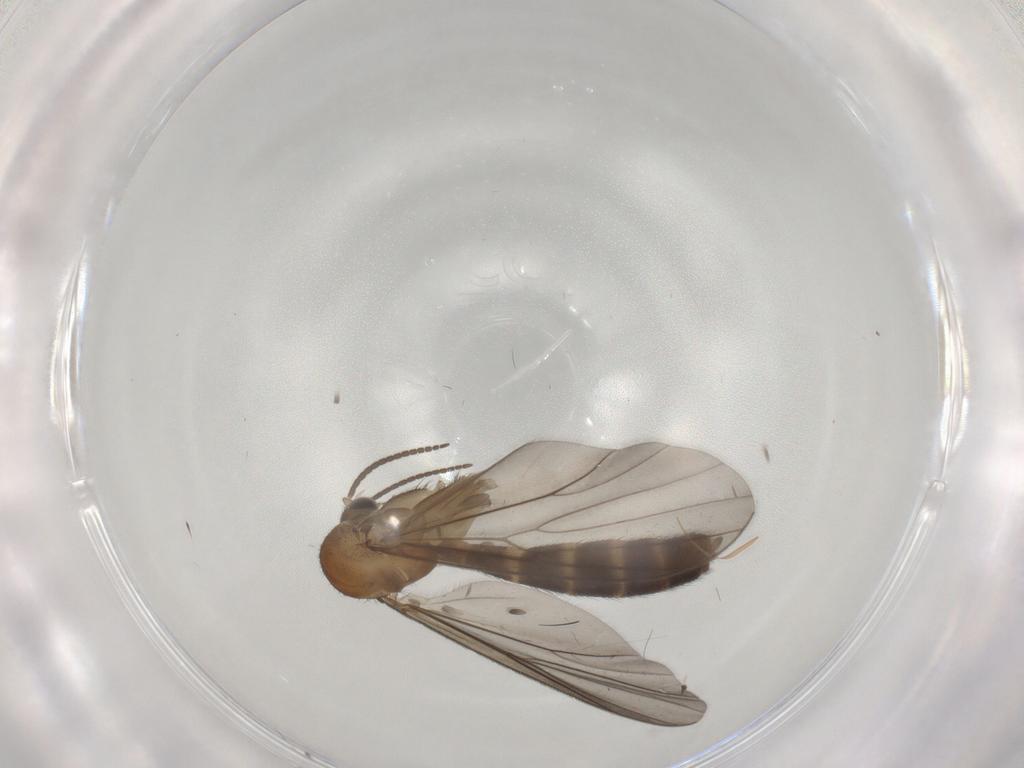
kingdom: Animalia
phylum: Arthropoda
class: Insecta
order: Diptera
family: Mycetophilidae
